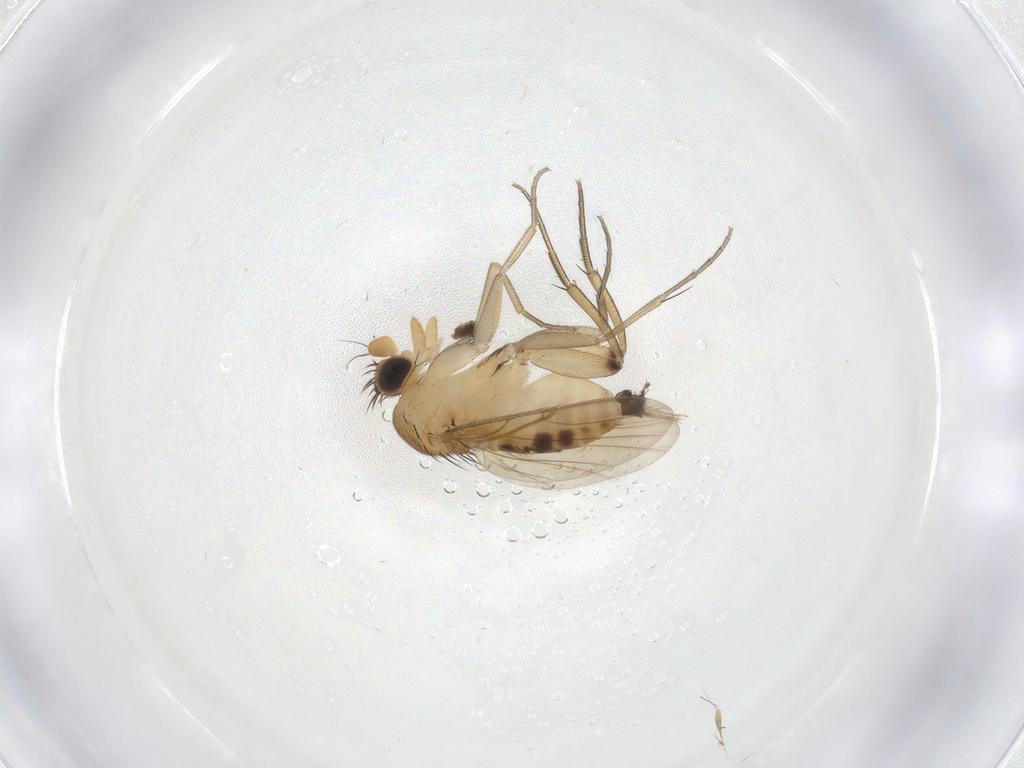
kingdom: Animalia
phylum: Arthropoda
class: Insecta
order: Diptera
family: Phoridae
